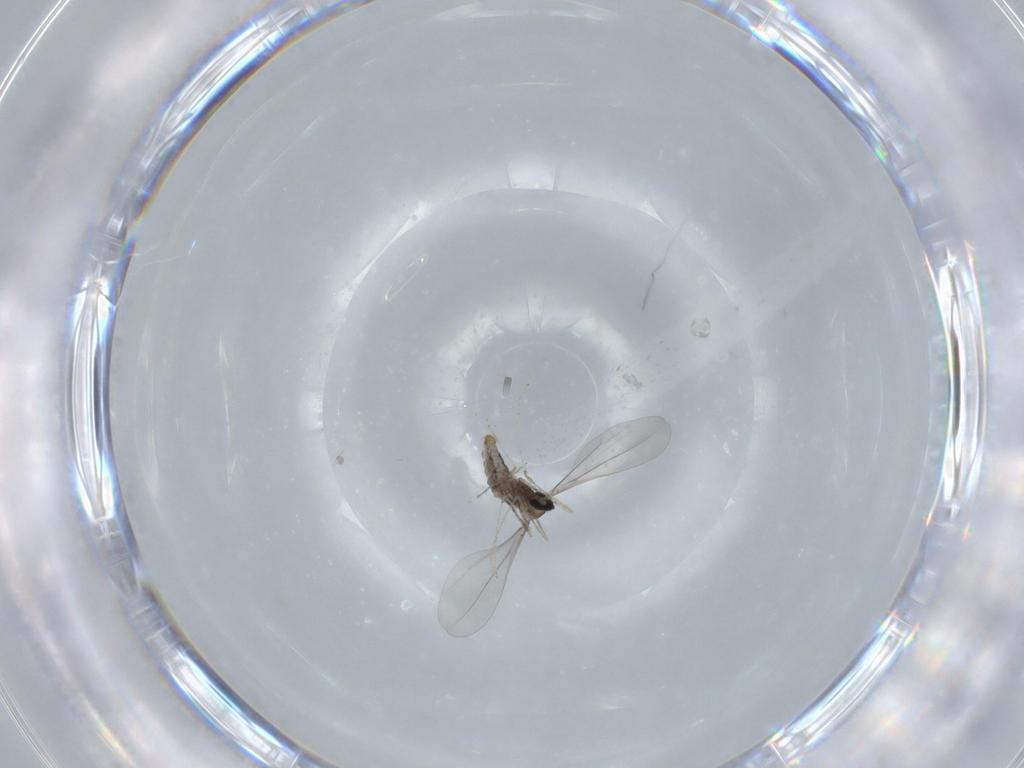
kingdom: Animalia
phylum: Arthropoda
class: Insecta
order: Diptera
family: Cecidomyiidae
